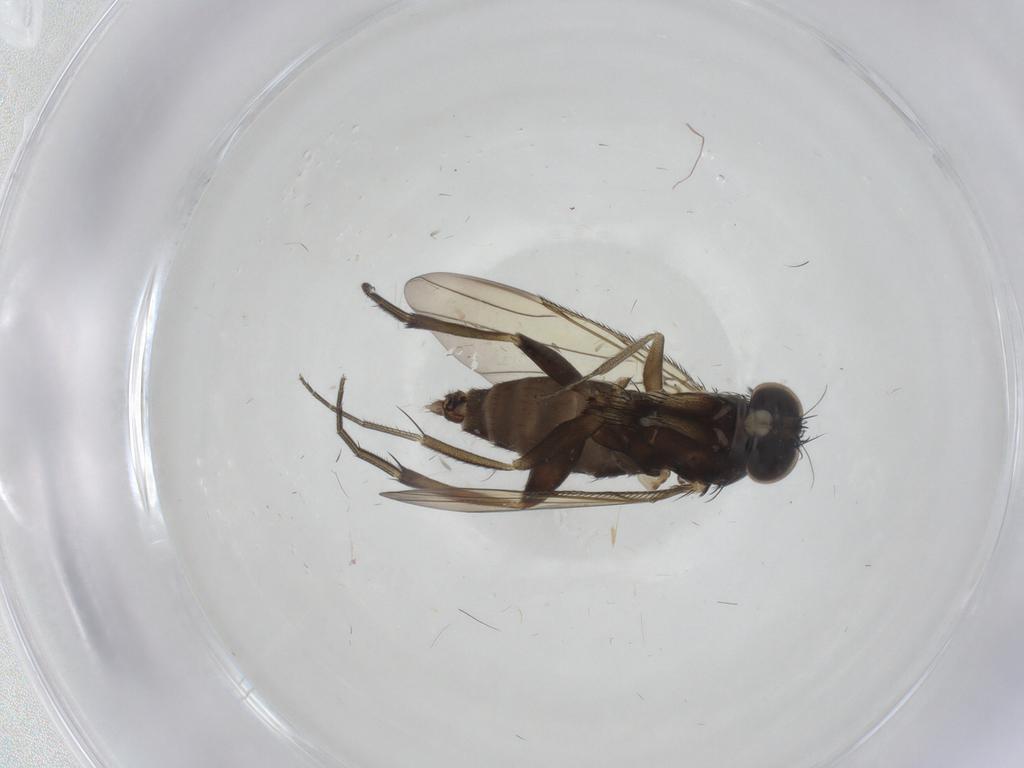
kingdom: Animalia
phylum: Arthropoda
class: Insecta
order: Diptera
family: Phoridae
